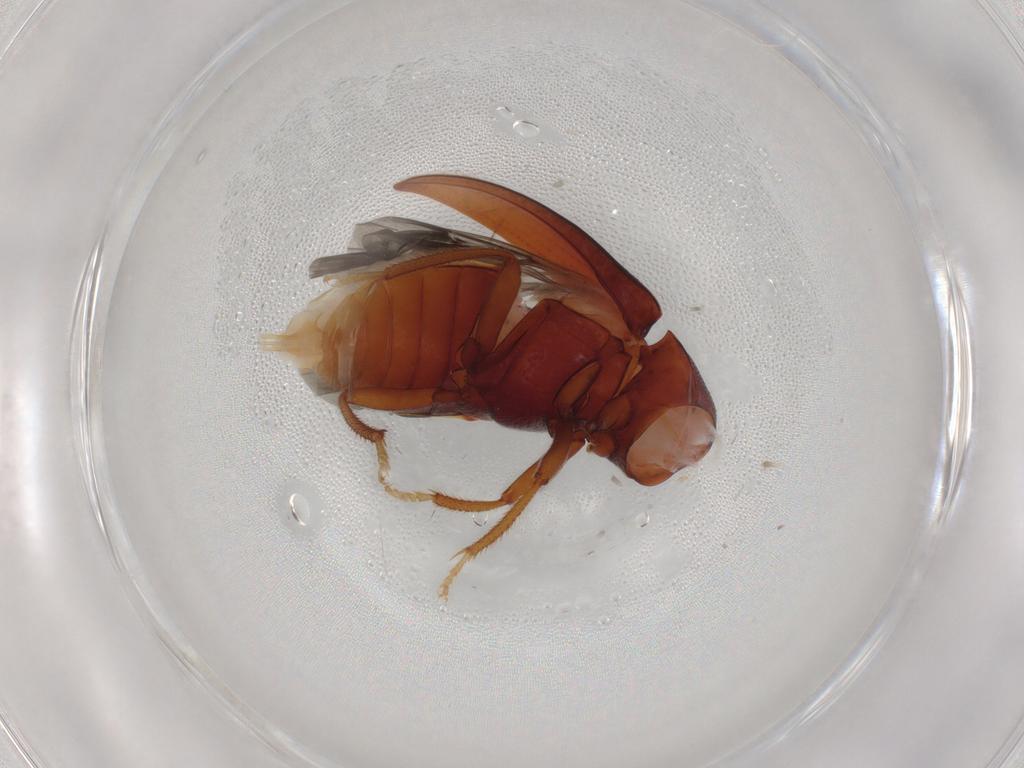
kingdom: Animalia
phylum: Arthropoda
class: Insecta
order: Coleoptera
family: Ptilodactylidae
